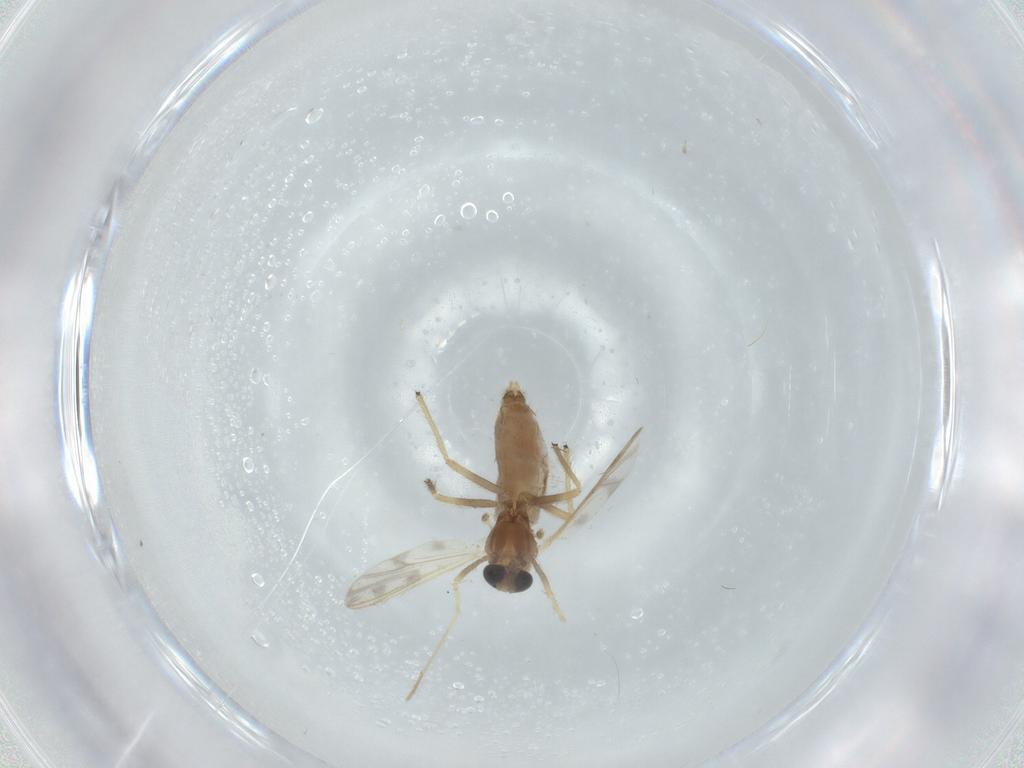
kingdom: Animalia
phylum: Arthropoda
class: Insecta
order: Diptera
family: Chironomidae
